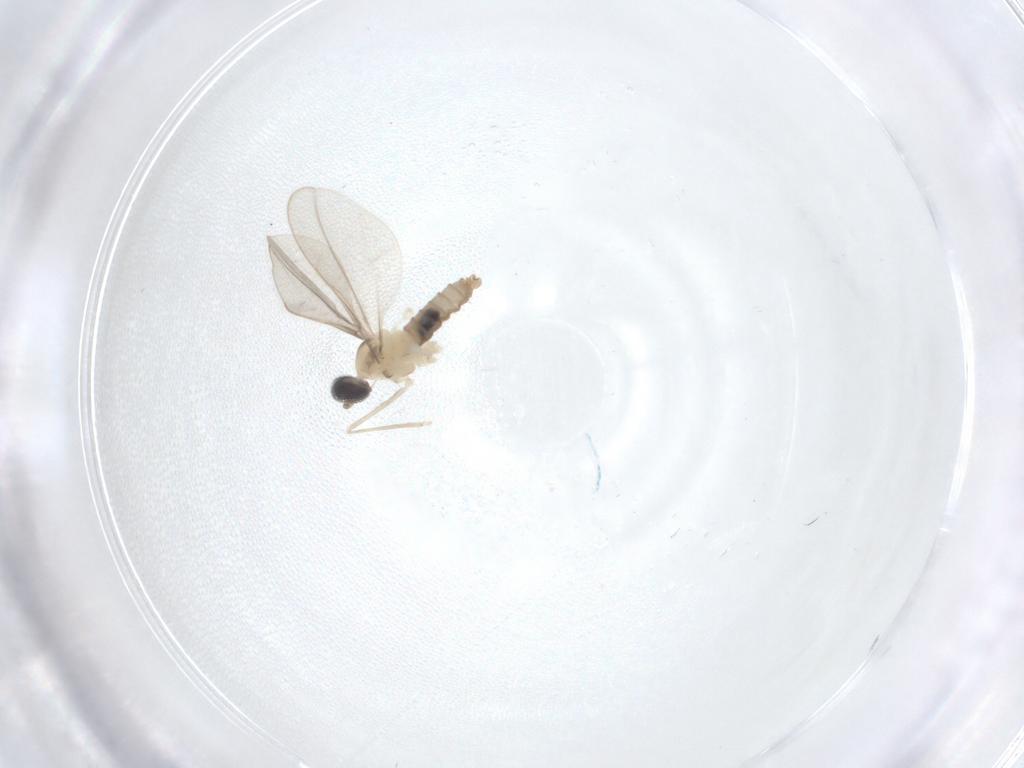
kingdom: Animalia
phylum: Arthropoda
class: Insecta
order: Diptera
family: Cecidomyiidae
